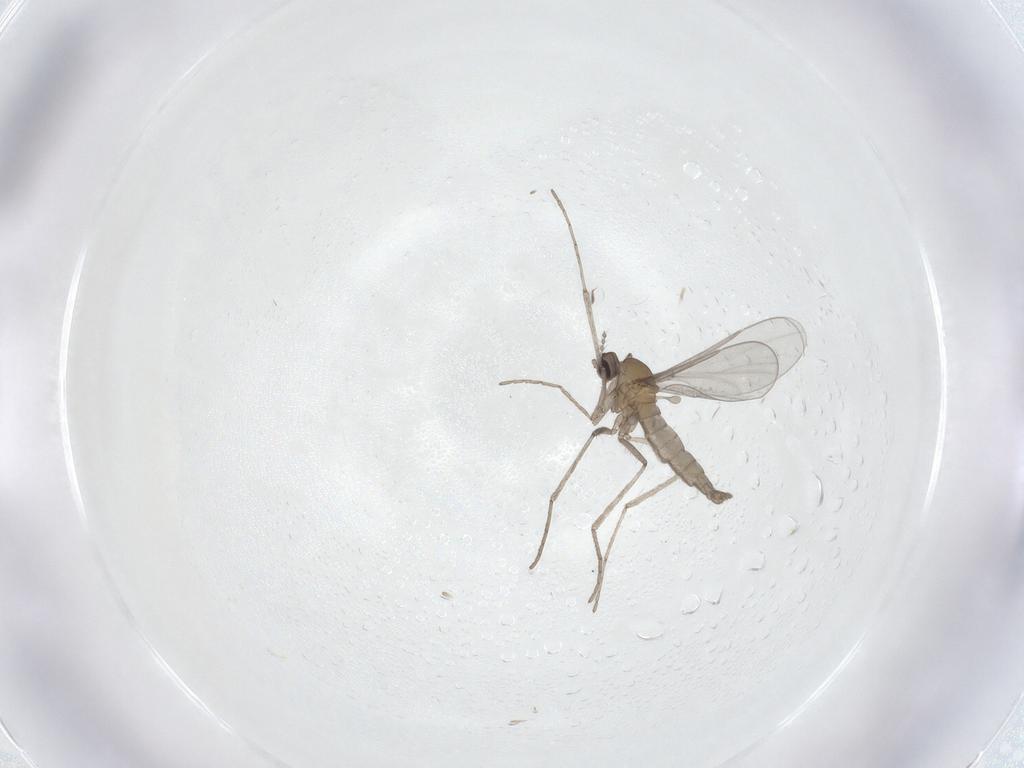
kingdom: Animalia
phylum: Arthropoda
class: Insecta
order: Diptera
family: Cecidomyiidae
